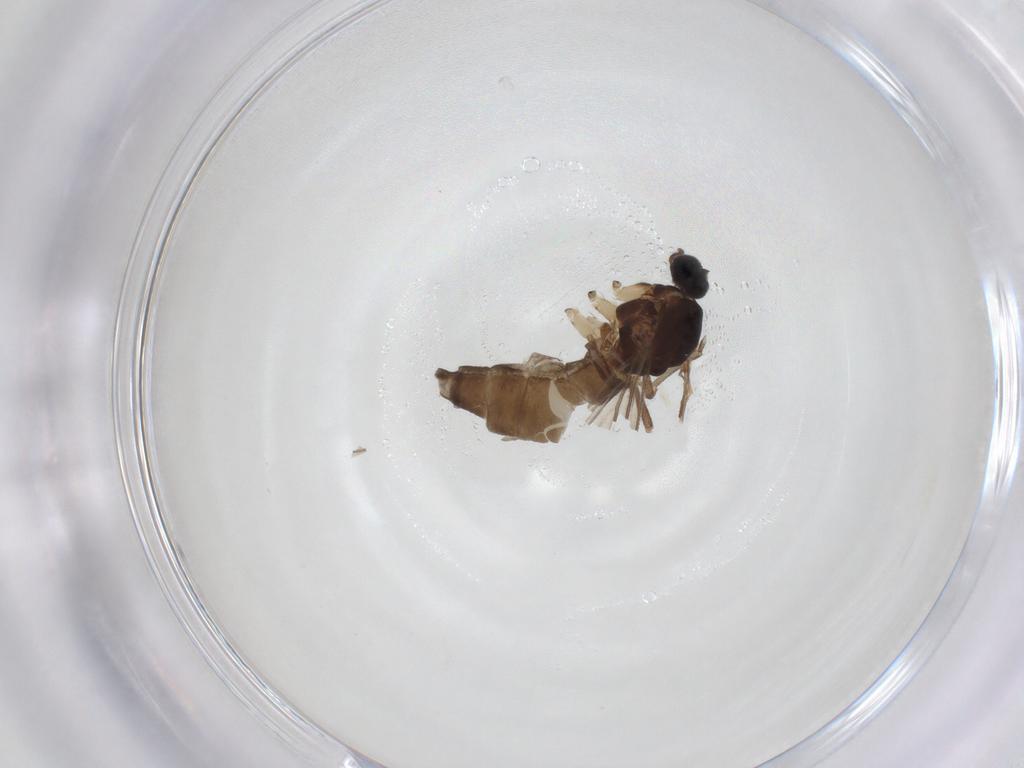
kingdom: Animalia
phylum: Arthropoda
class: Insecta
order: Diptera
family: Sciaridae
